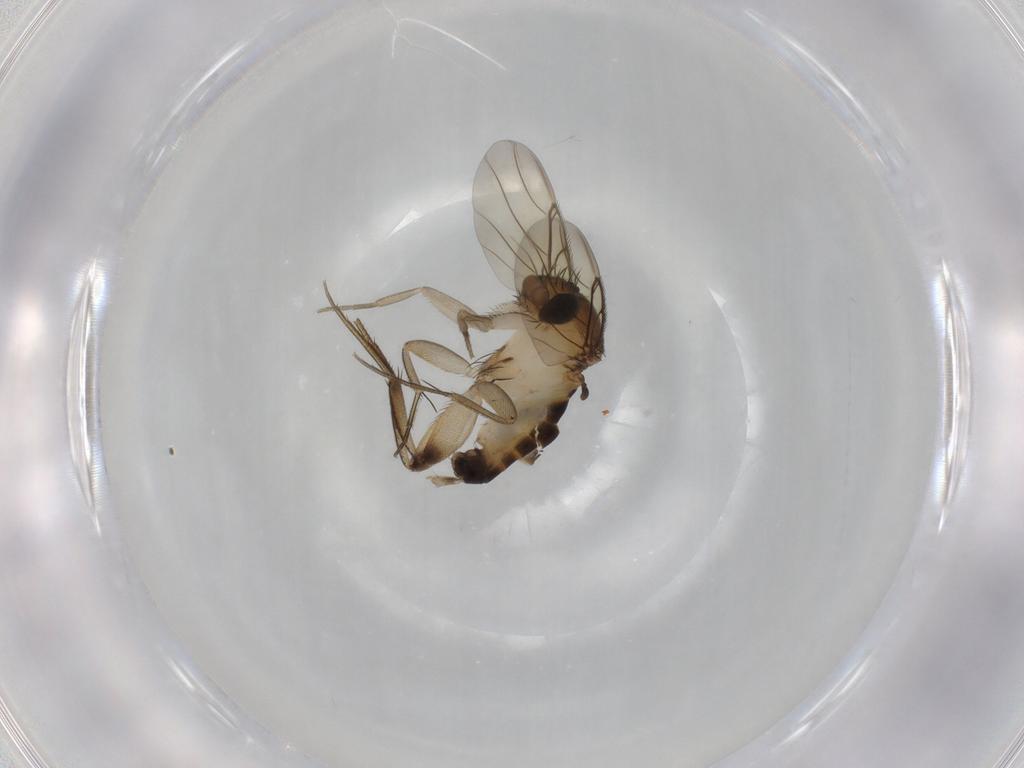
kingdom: Animalia
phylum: Arthropoda
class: Insecta
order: Diptera
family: Phoridae
